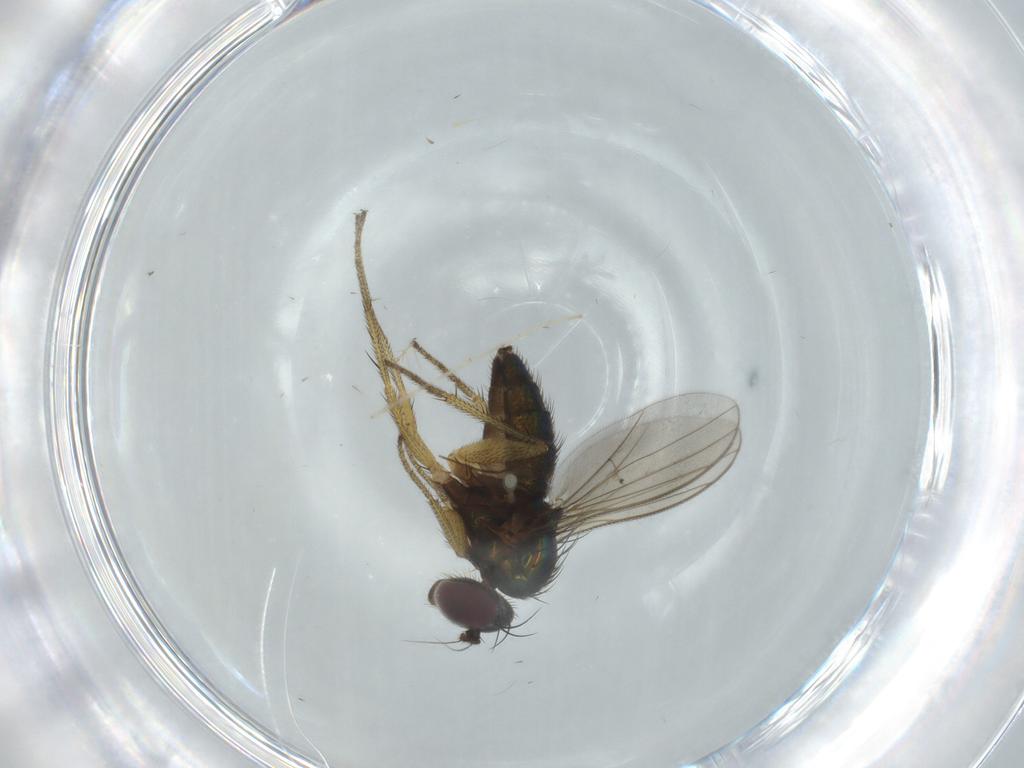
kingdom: Animalia
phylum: Arthropoda
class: Insecta
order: Diptera
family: Dolichopodidae
